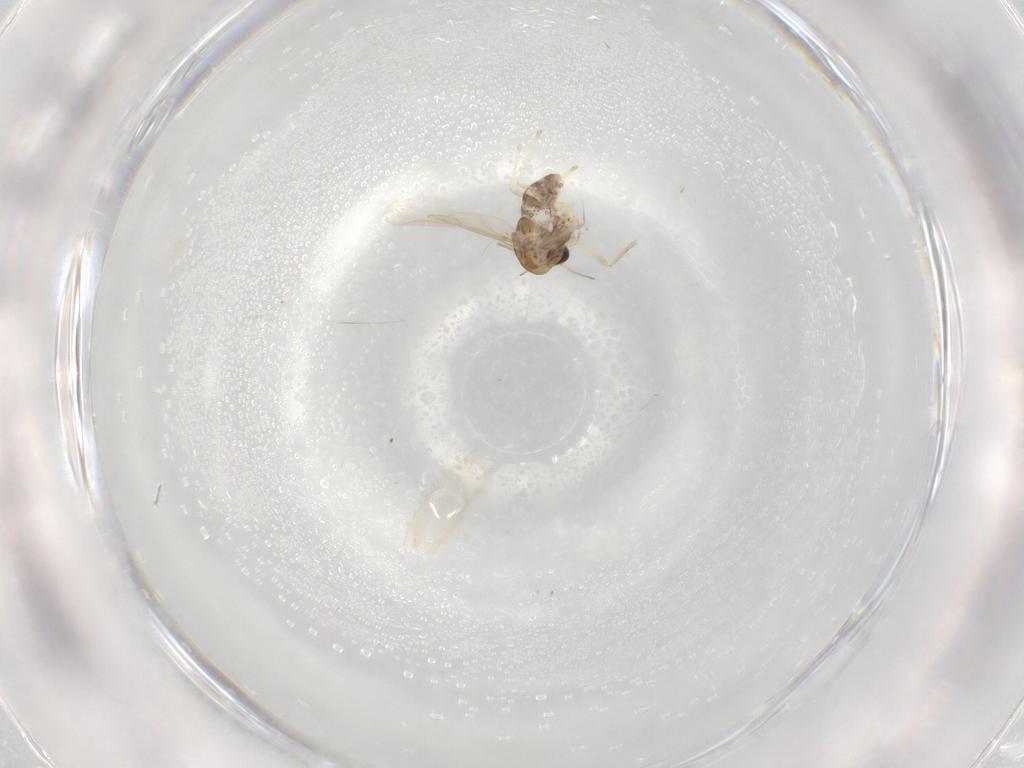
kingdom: Animalia
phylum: Arthropoda
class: Insecta
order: Diptera
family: Chironomidae
